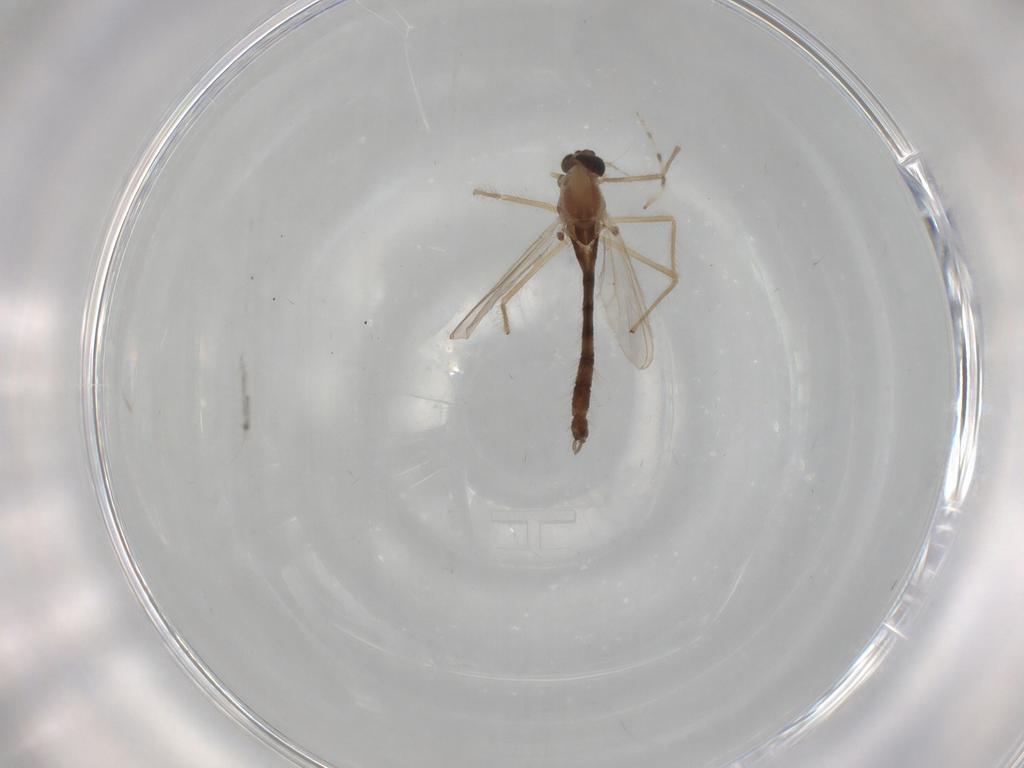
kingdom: Animalia
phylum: Arthropoda
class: Insecta
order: Diptera
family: Chironomidae
